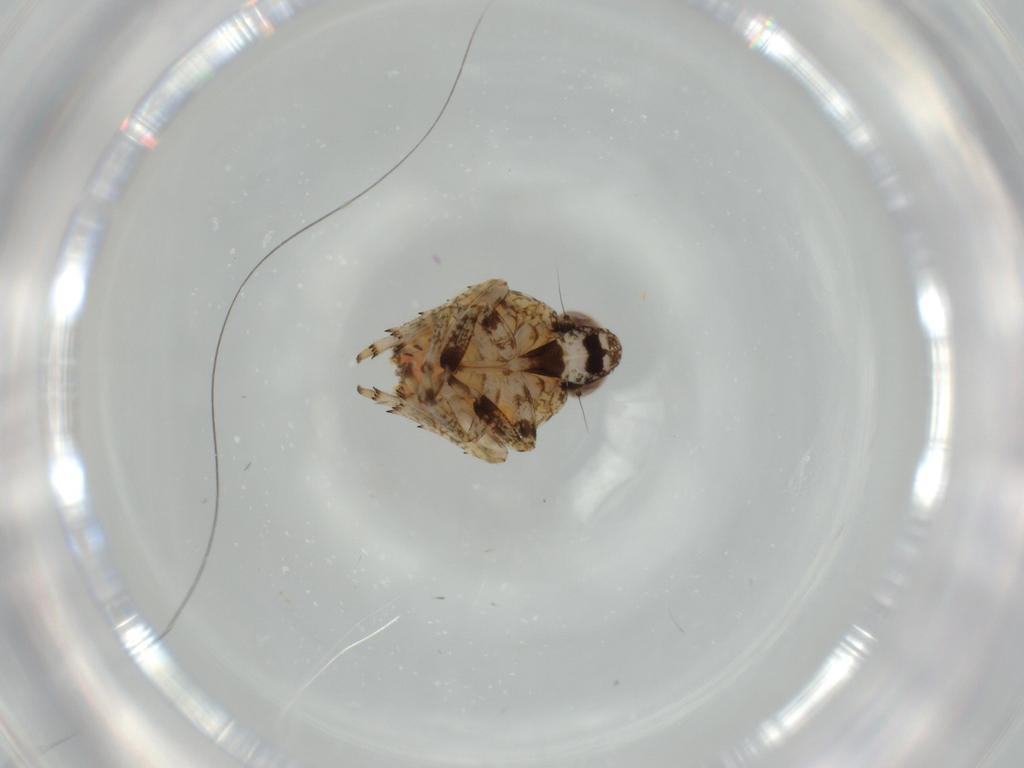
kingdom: Animalia
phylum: Arthropoda
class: Insecta
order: Hemiptera
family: Issidae
